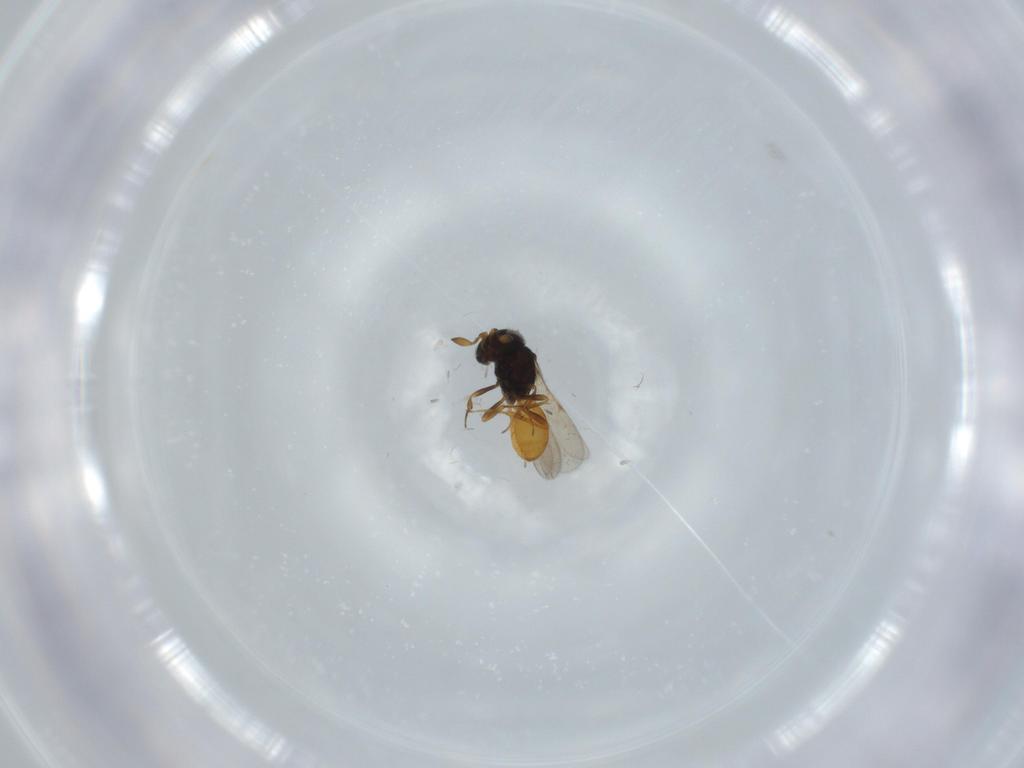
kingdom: Animalia
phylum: Arthropoda
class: Insecta
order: Hymenoptera
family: Scelionidae
